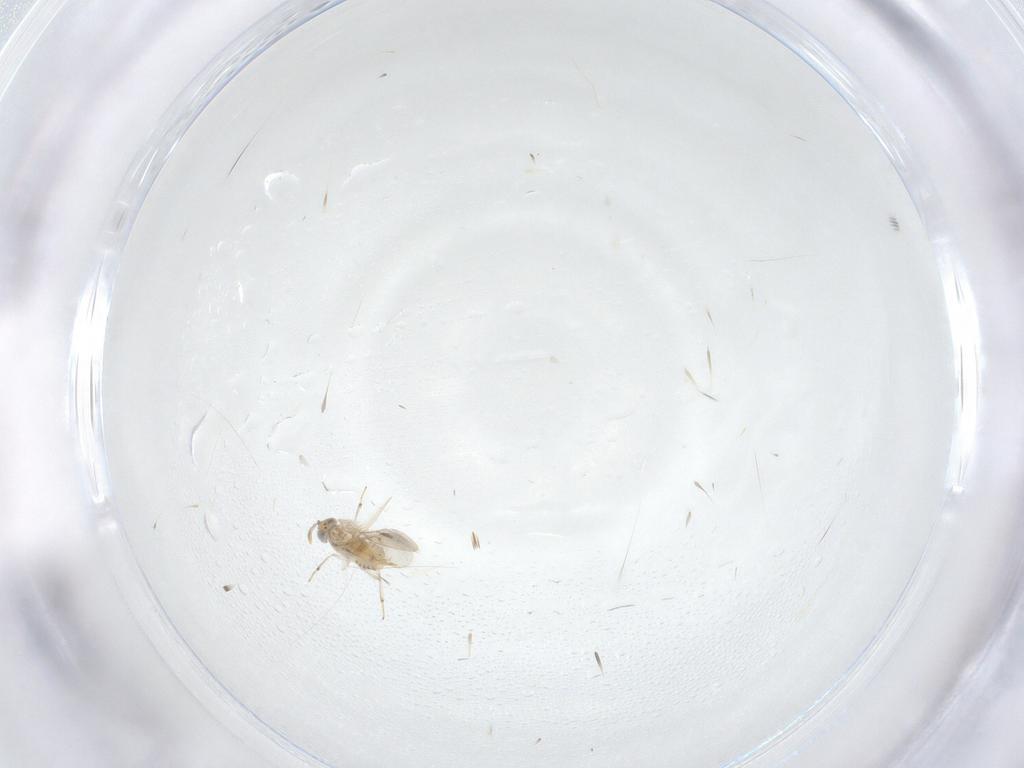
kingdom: Animalia
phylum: Arthropoda
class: Insecta
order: Hymenoptera
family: Aphelinidae
